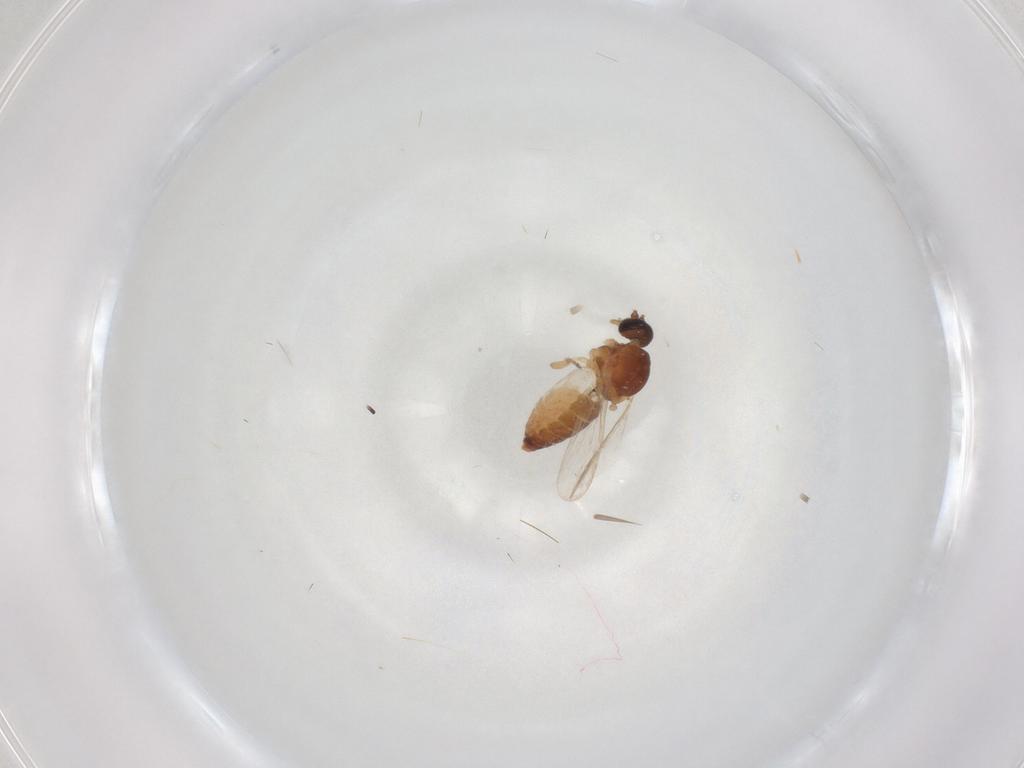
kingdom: Animalia
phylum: Arthropoda
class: Insecta
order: Diptera
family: Ceratopogonidae
